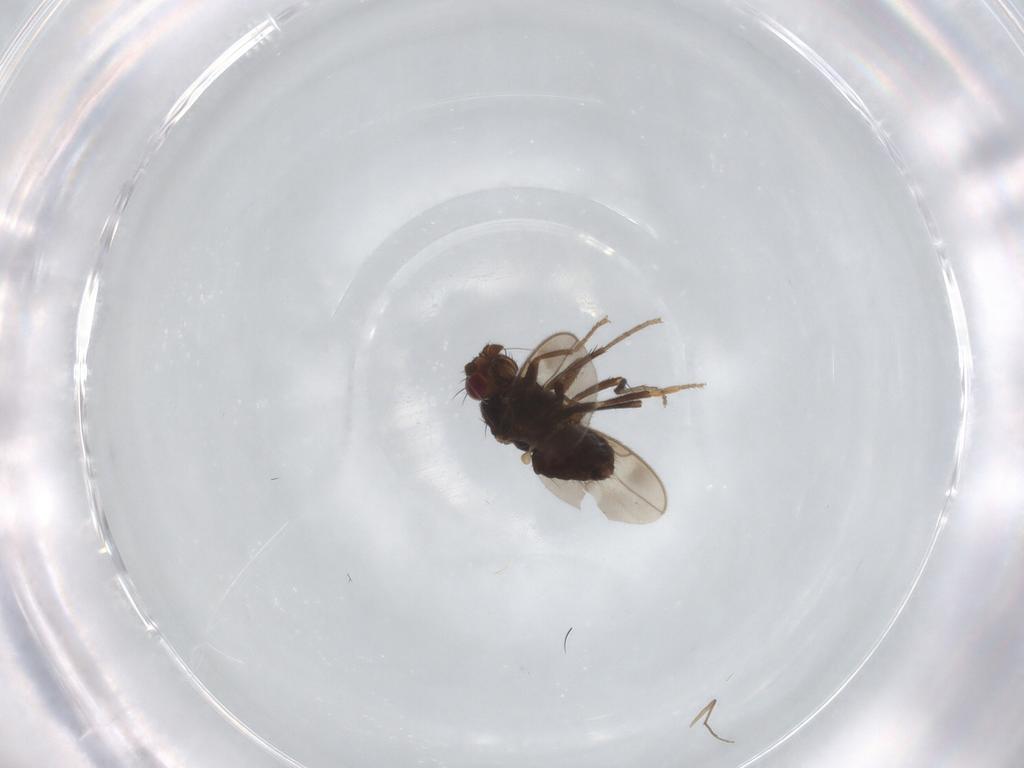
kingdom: Animalia
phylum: Arthropoda
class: Insecta
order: Diptera
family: Sphaeroceridae
